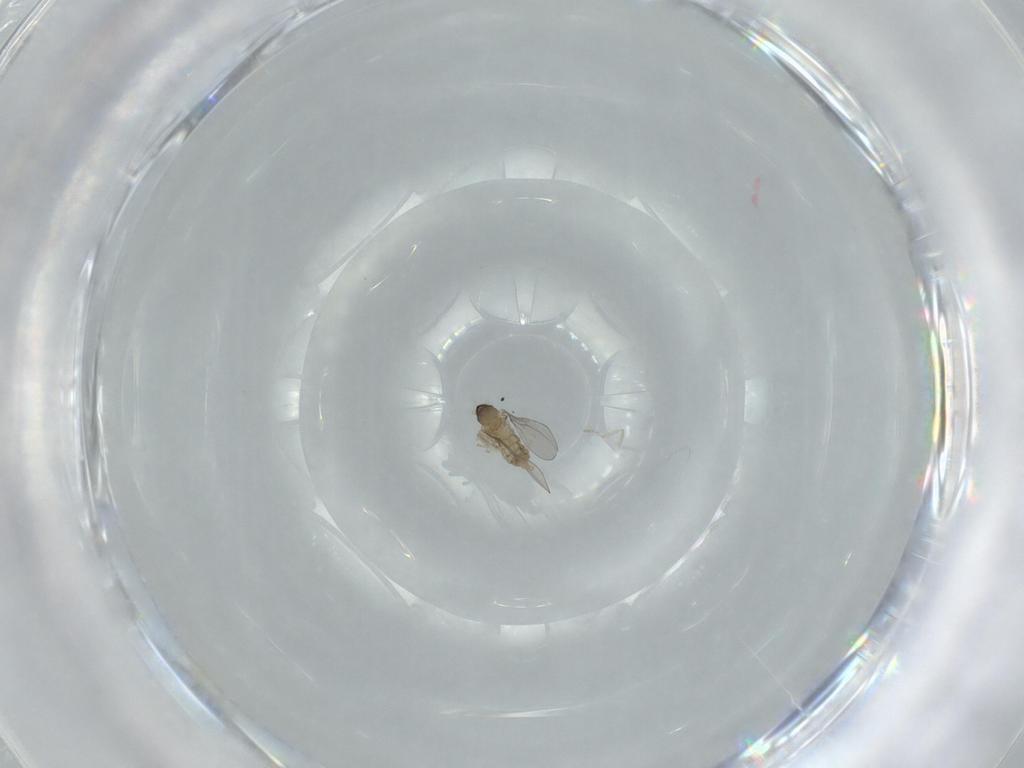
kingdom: Animalia
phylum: Arthropoda
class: Insecta
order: Diptera
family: Cecidomyiidae
